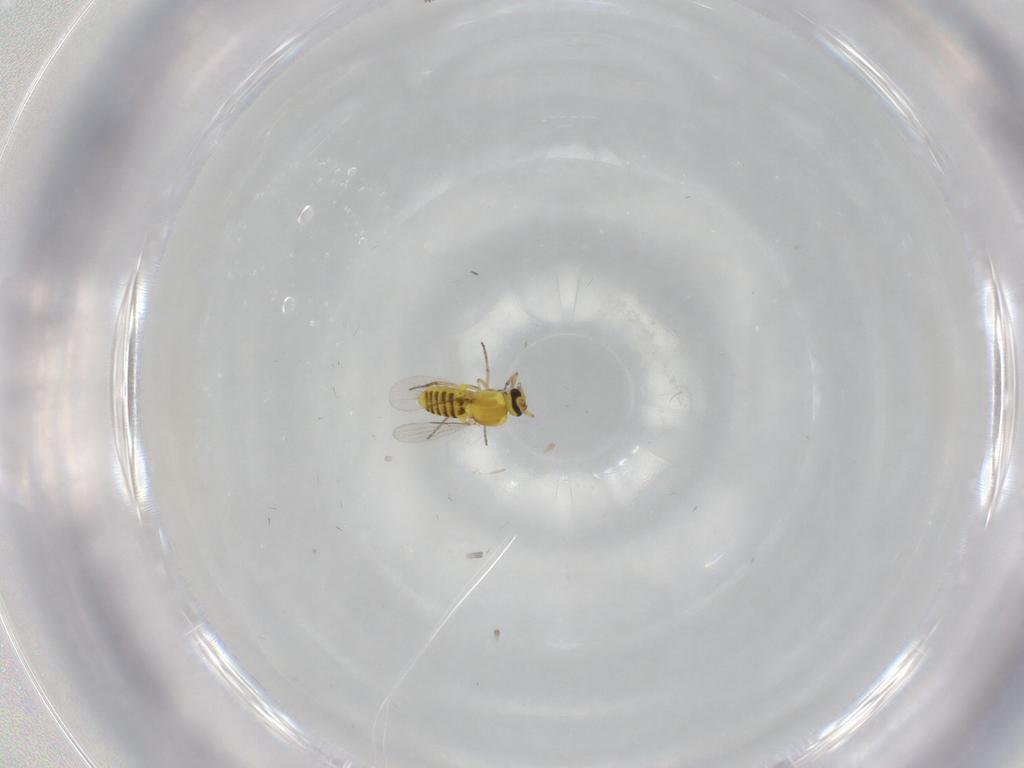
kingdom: Animalia
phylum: Arthropoda
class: Insecta
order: Diptera
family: Ceratopogonidae
